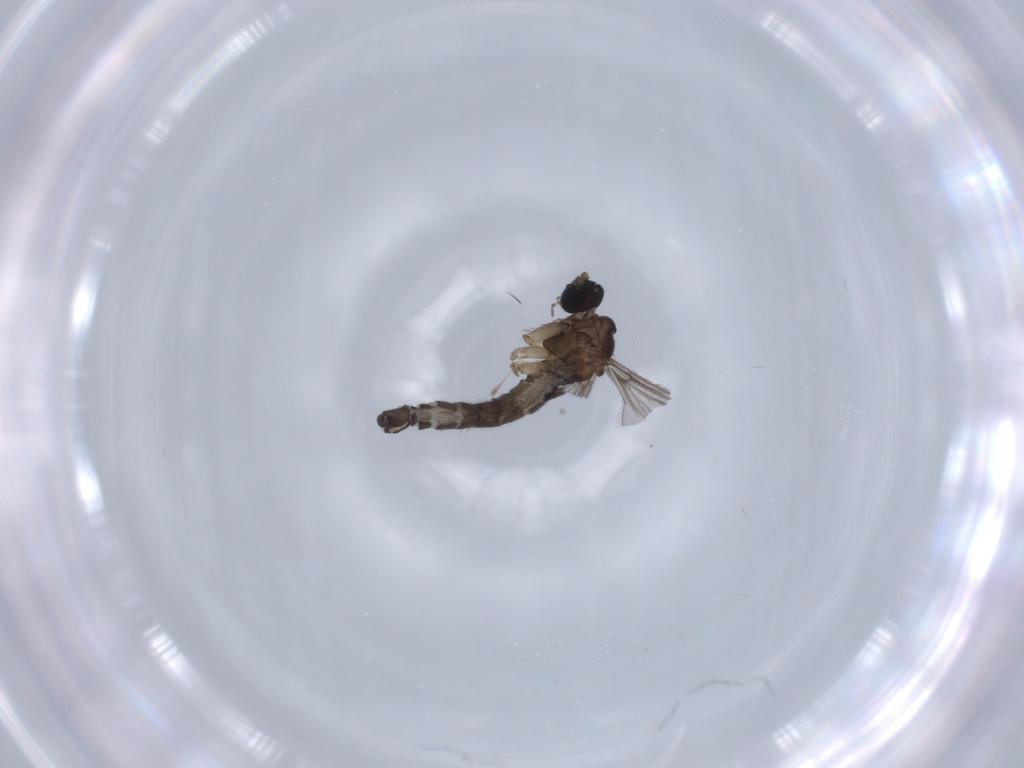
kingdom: Animalia
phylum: Arthropoda
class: Insecta
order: Diptera
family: Sciaridae
